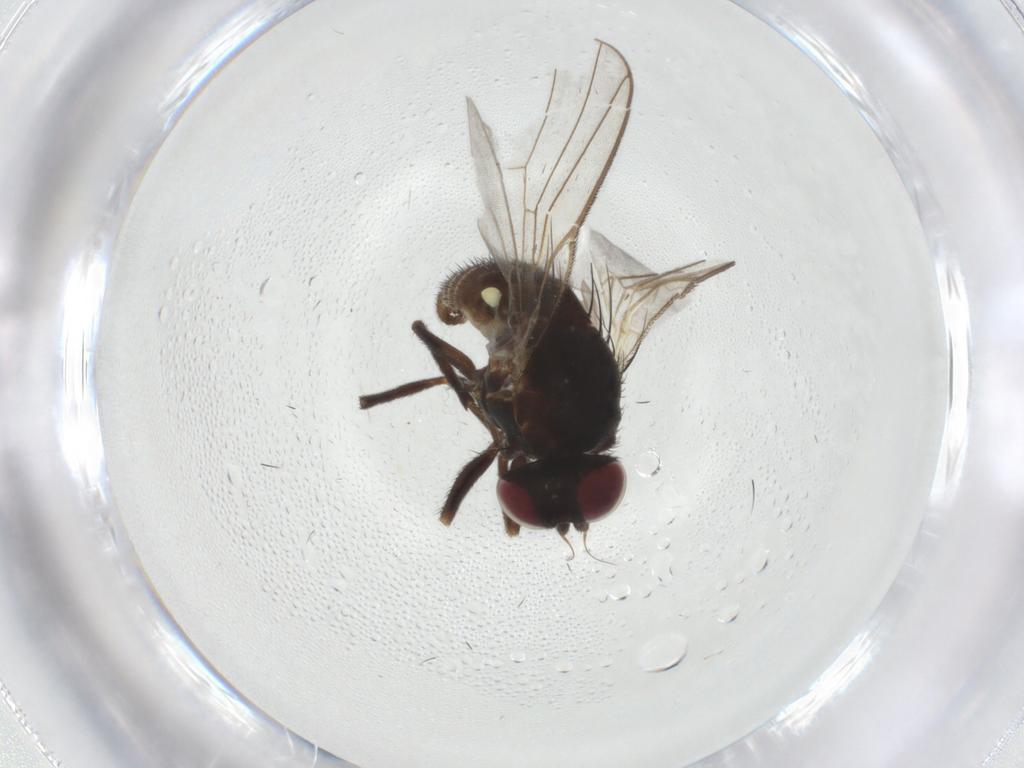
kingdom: Animalia
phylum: Arthropoda
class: Insecta
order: Diptera
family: Agromyzidae
